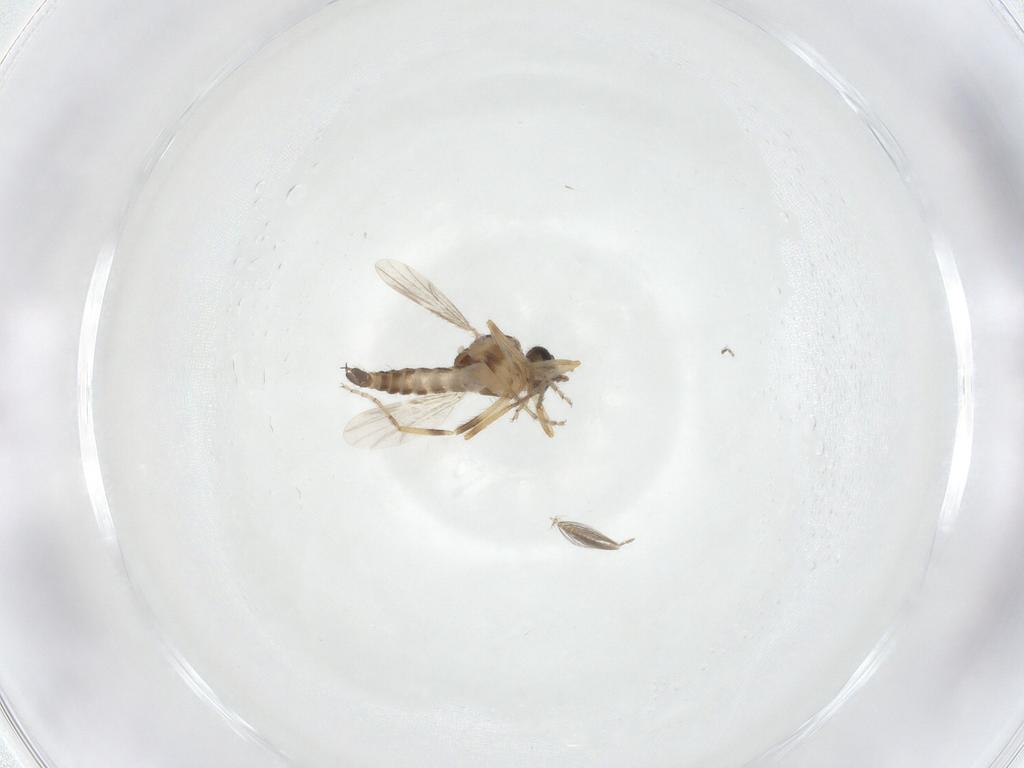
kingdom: Animalia
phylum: Arthropoda
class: Insecta
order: Diptera
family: Ceratopogonidae
